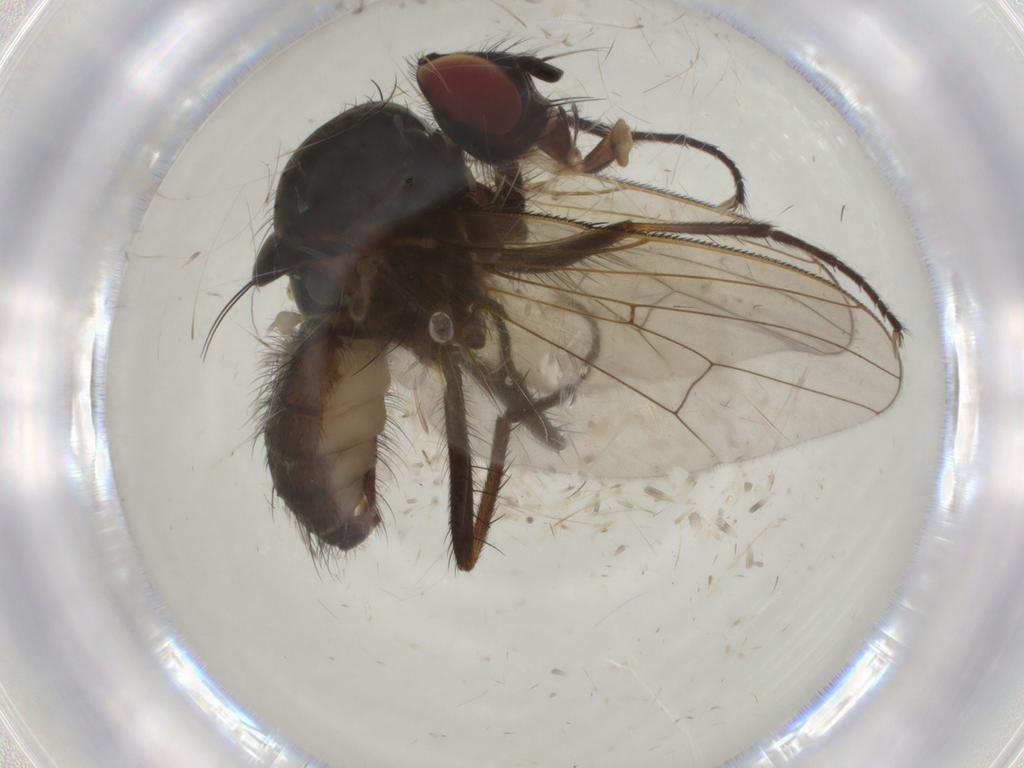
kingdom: Animalia
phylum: Arthropoda
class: Insecta
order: Diptera
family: Anthomyiidae
